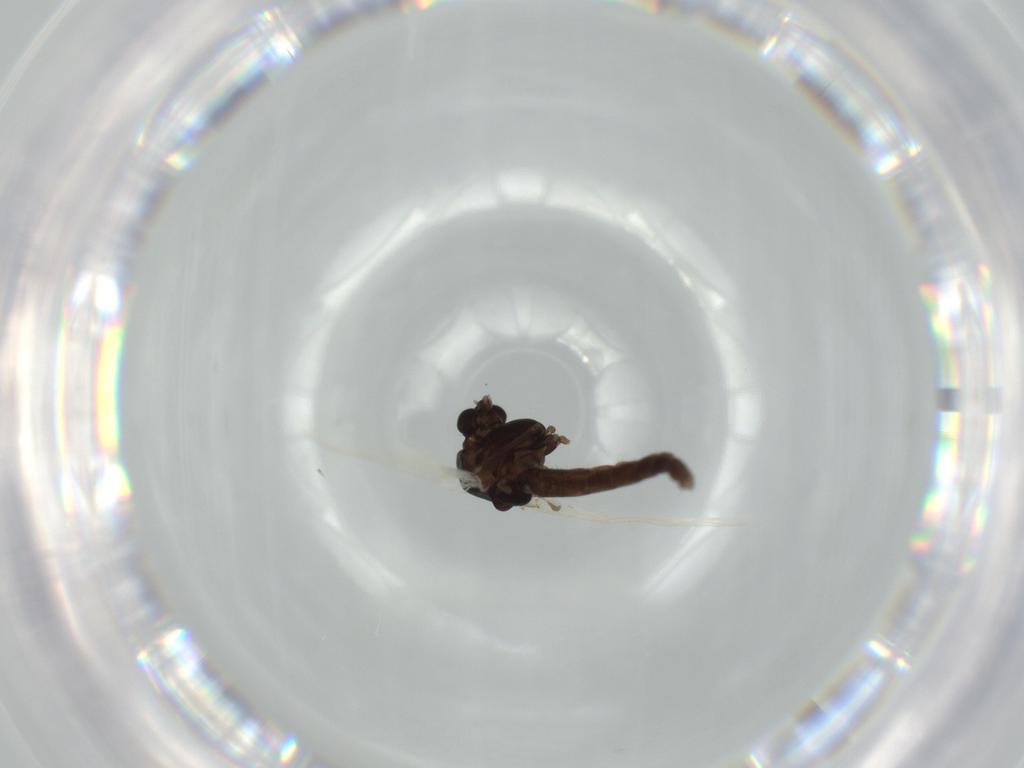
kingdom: Animalia
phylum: Arthropoda
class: Insecta
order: Diptera
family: Chironomidae
